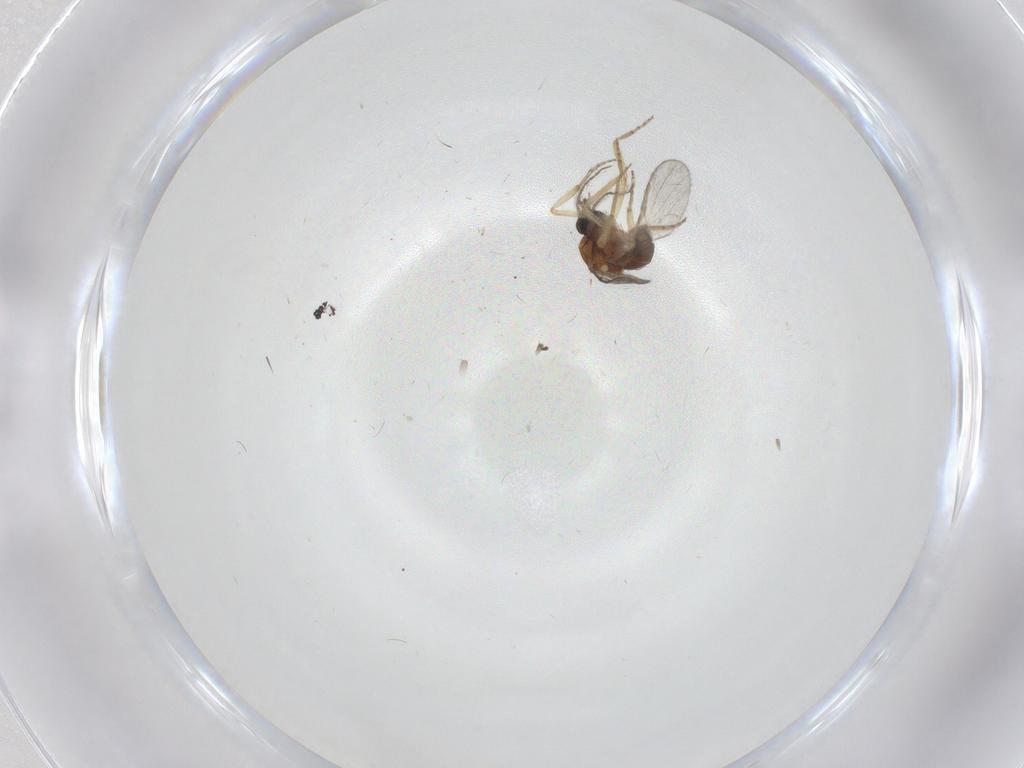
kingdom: Animalia
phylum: Arthropoda
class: Insecta
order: Diptera
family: Ceratopogonidae
